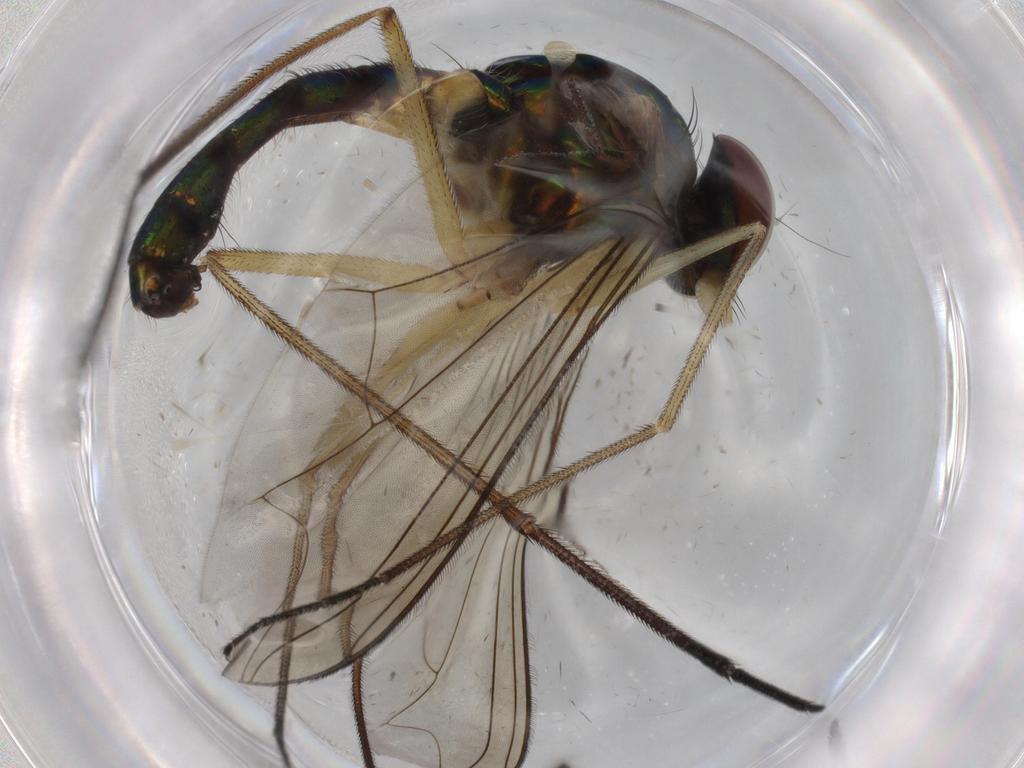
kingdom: Animalia
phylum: Arthropoda
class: Insecta
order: Diptera
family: Dolichopodidae
